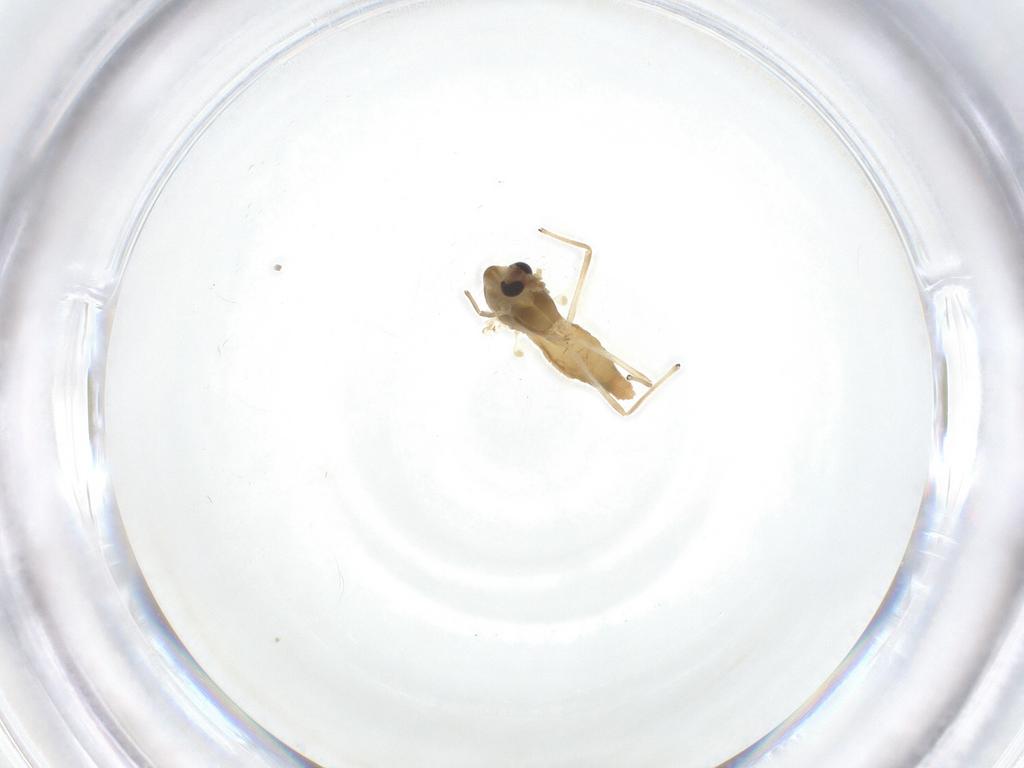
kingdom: Animalia
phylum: Arthropoda
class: Insecta
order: Diptera
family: Chironomidae
